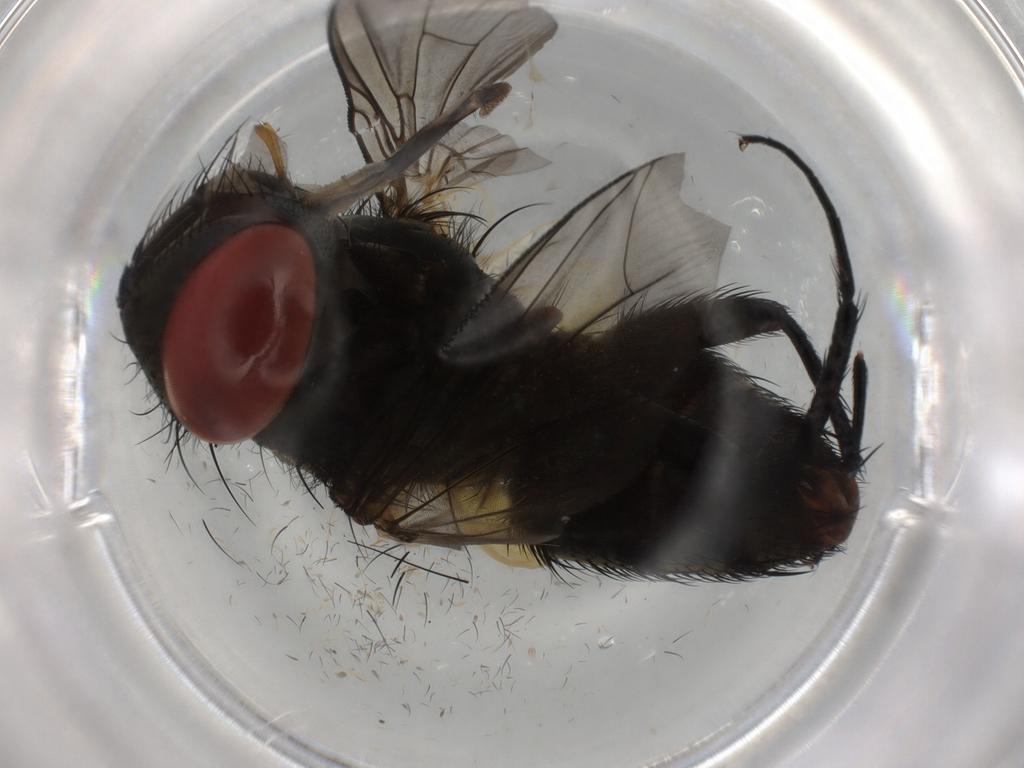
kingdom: Animalia
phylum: Arthropoda
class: Insecta
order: Diptera
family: Sarcophagidae
